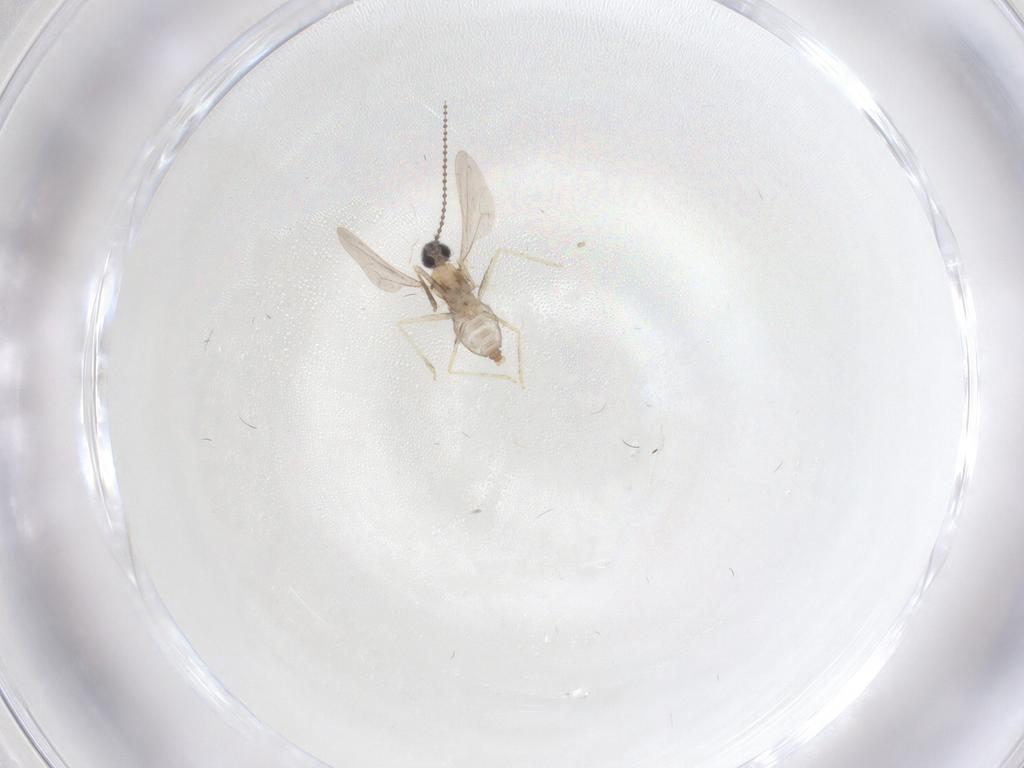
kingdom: Animalia
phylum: Arthropoda
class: Insecta
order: Diptera
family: Cecidomyiidae
